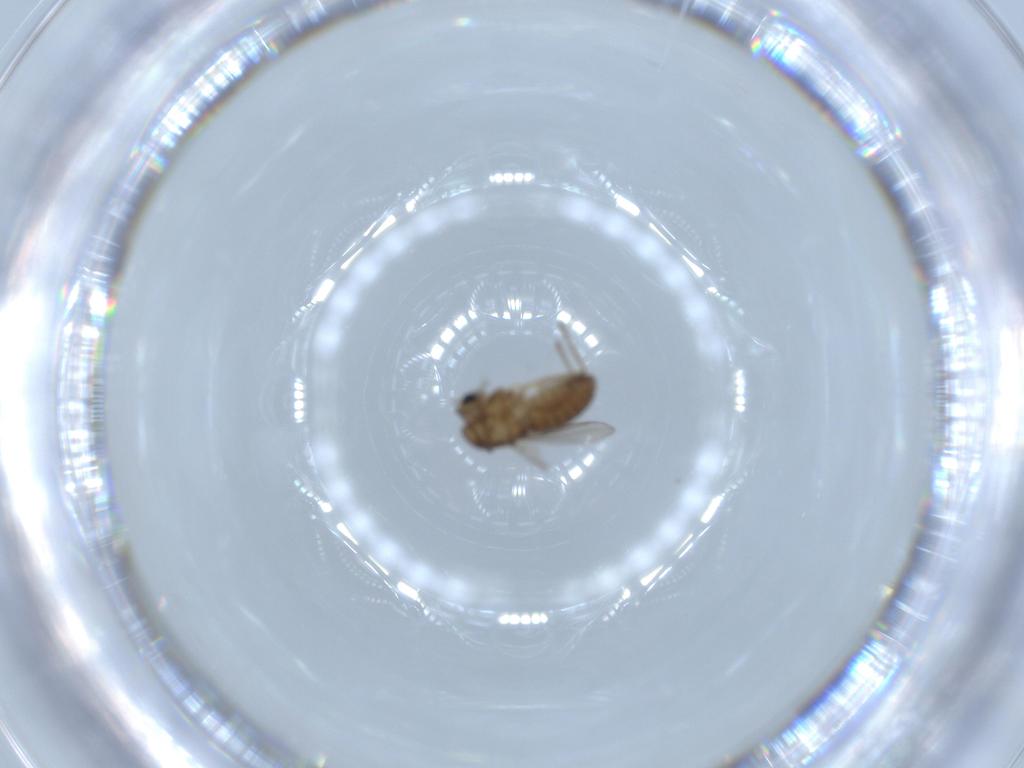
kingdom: Animalia
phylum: Arthropoda
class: Insecta
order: Diptera
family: Chironomidae
